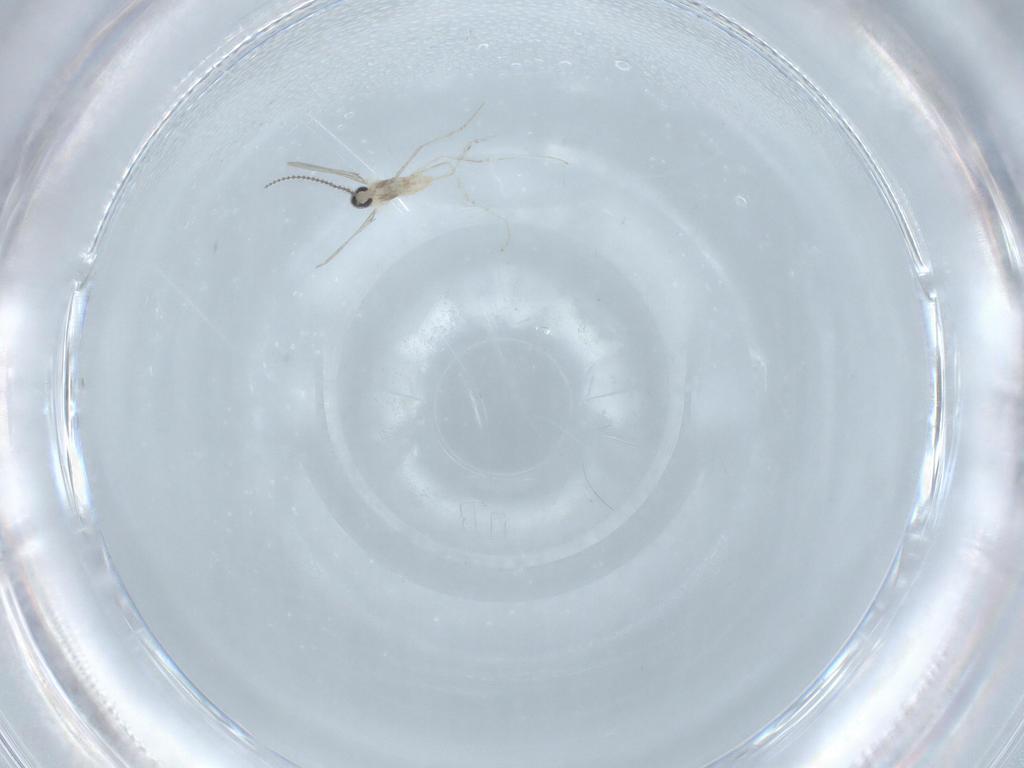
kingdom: Animalia
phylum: Arthropoda
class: Insecta
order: Diptera
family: Cecidomyiidae
